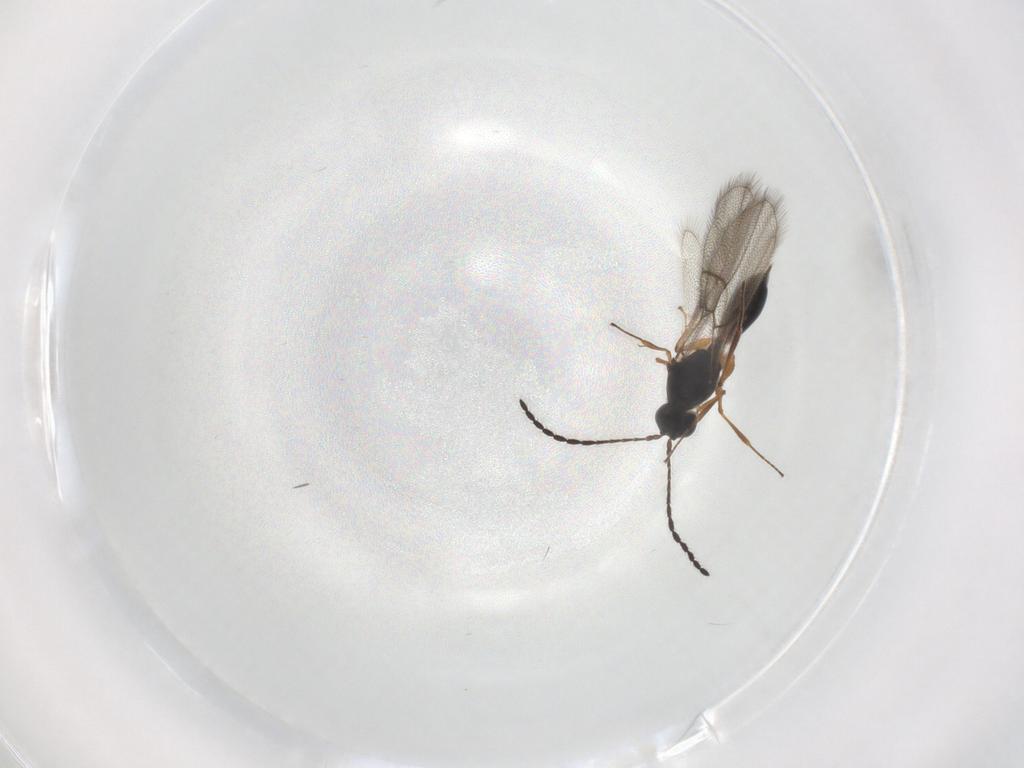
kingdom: Animalia
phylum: Arthropoda
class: Insecta
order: Hymenoptera
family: Figitidae
